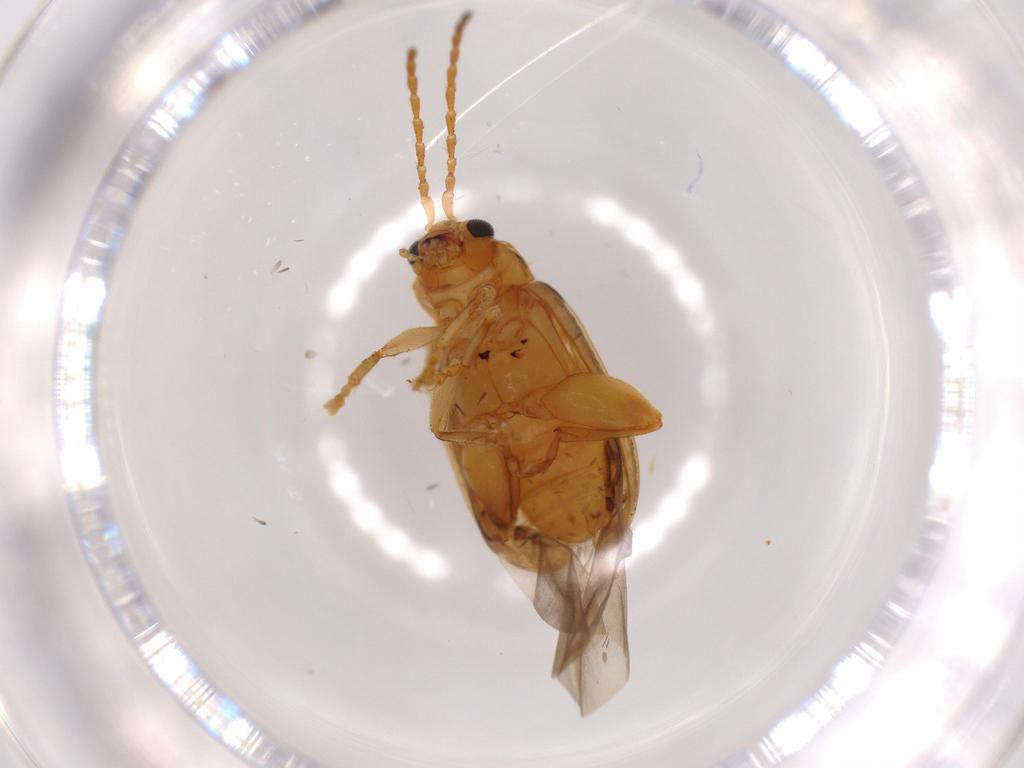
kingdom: Animalia
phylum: Arthropoda
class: Insecta
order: Coleoptera
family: Chrysomelidae
